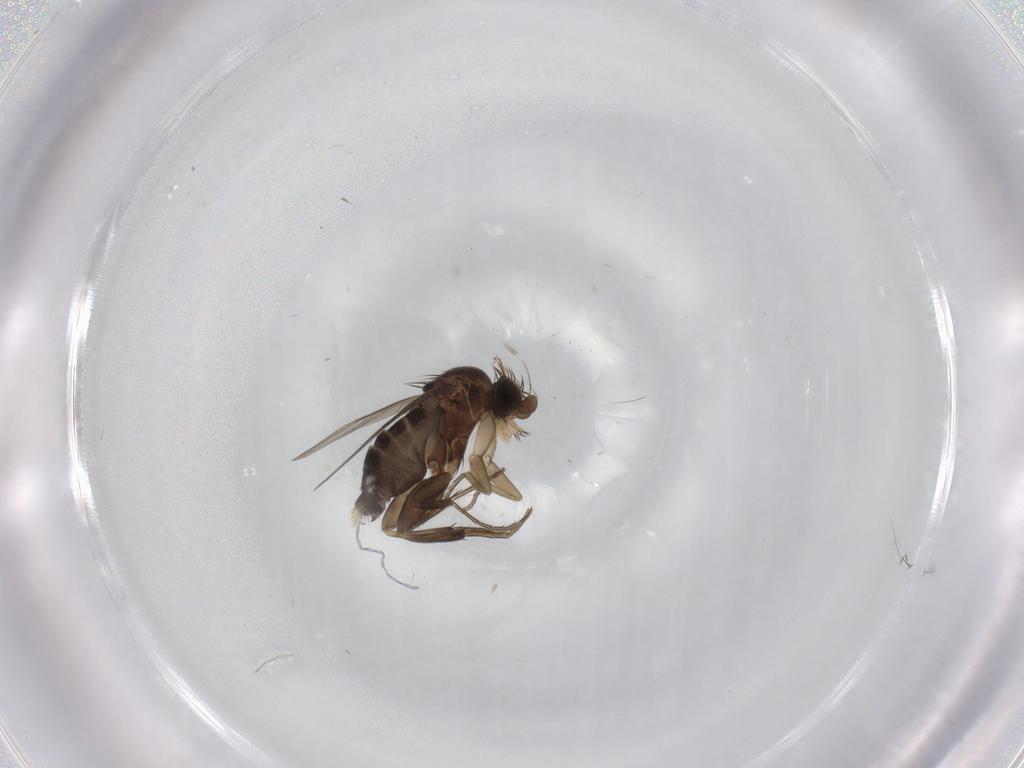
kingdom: Animalia
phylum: Arthropoda
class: Insecta
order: Diptera
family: Phoridae
